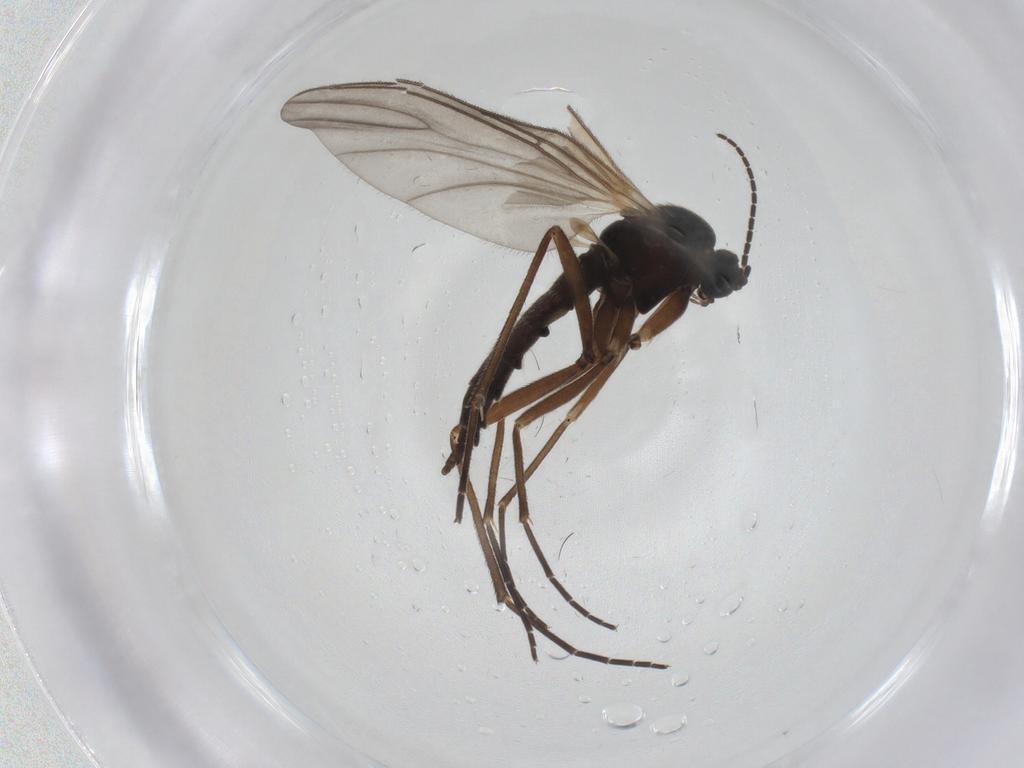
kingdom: Animalia
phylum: Arthropoda
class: Insecta
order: Diptera
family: Sciaridae
